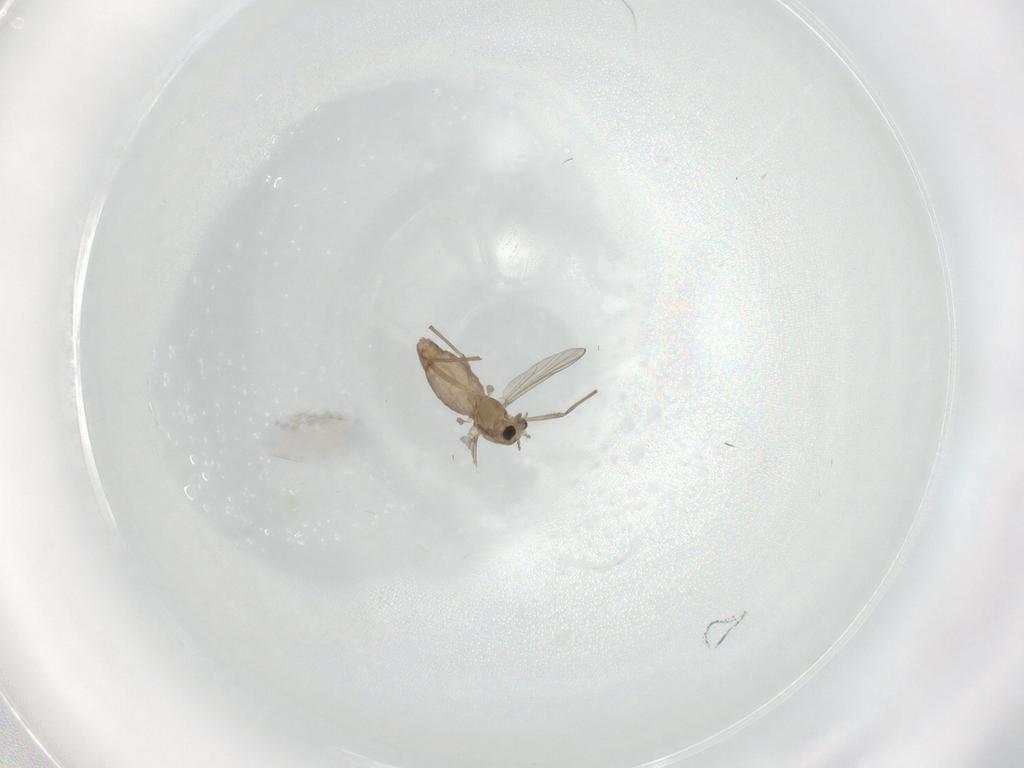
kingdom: Animalia
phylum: Arthropoda
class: Insecta
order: Diptera
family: Chironomidae
